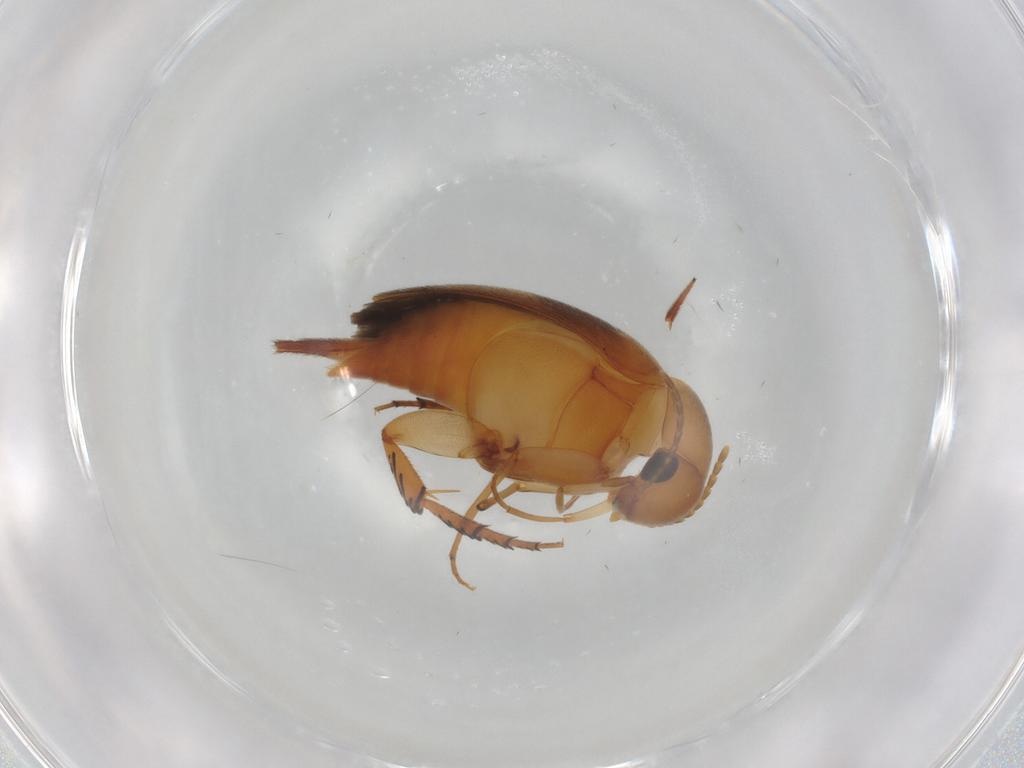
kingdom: Animalia
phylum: Arthropoda
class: Insecta
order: Coleoptera
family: Mordellidae
